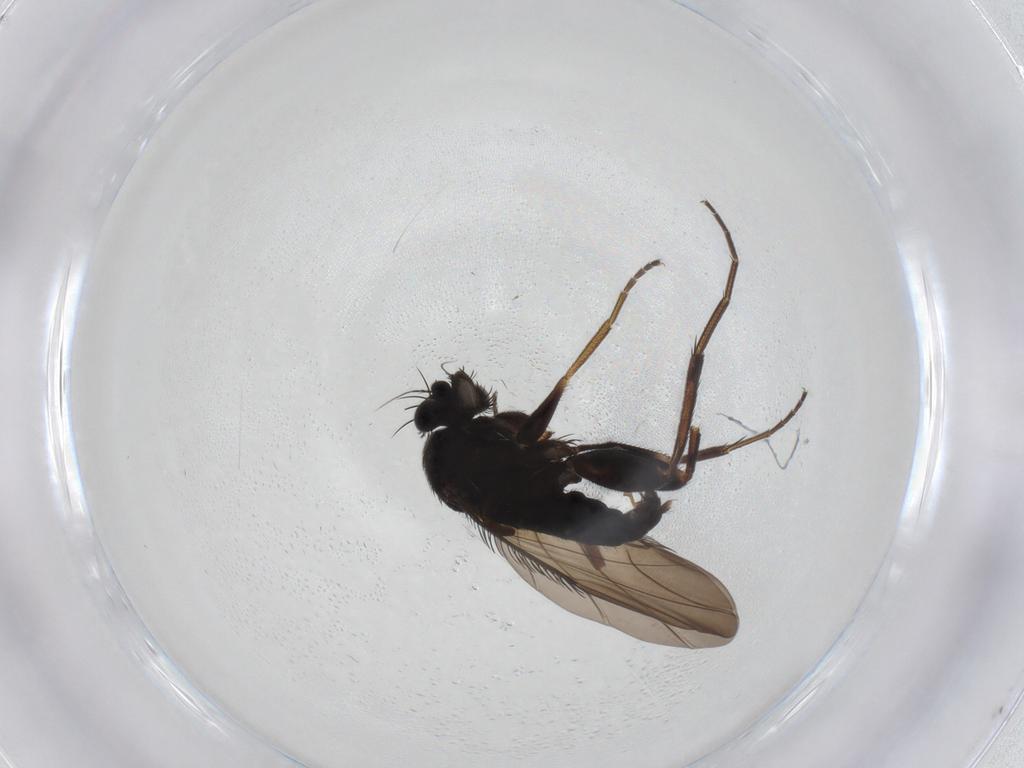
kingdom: Animalia
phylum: Arthropoda
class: Insecta
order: Diptera
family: Phoridae
